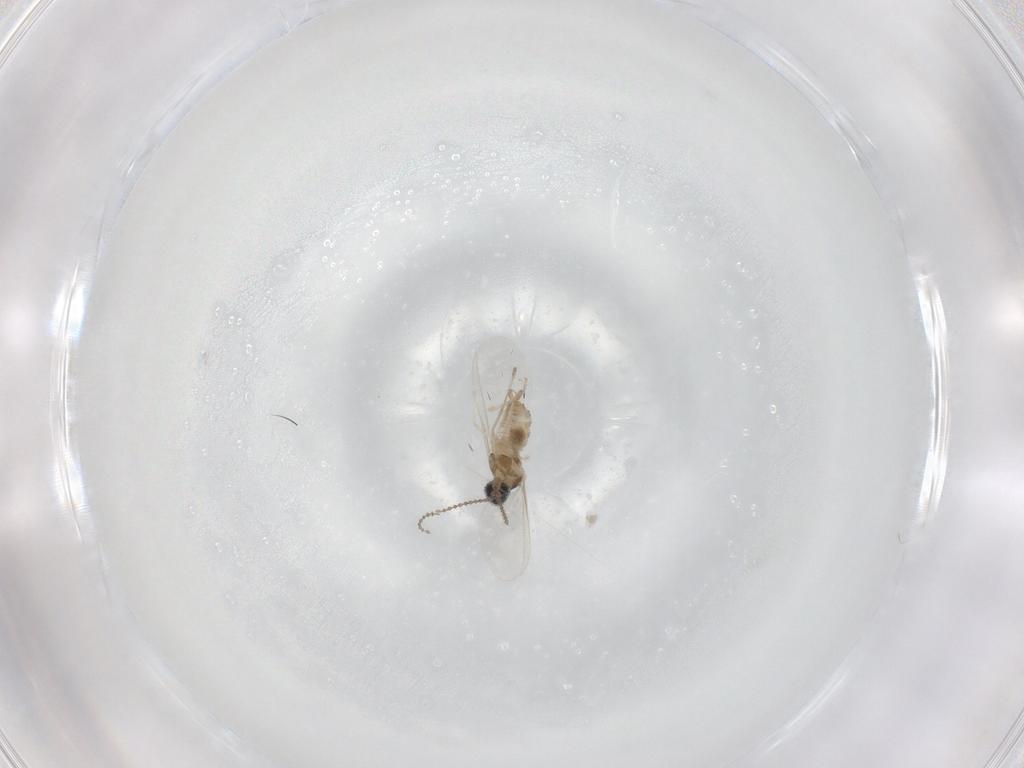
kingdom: Animalia
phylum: Arthropoda
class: Insecta
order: Diptera
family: Cecidomyiidae
